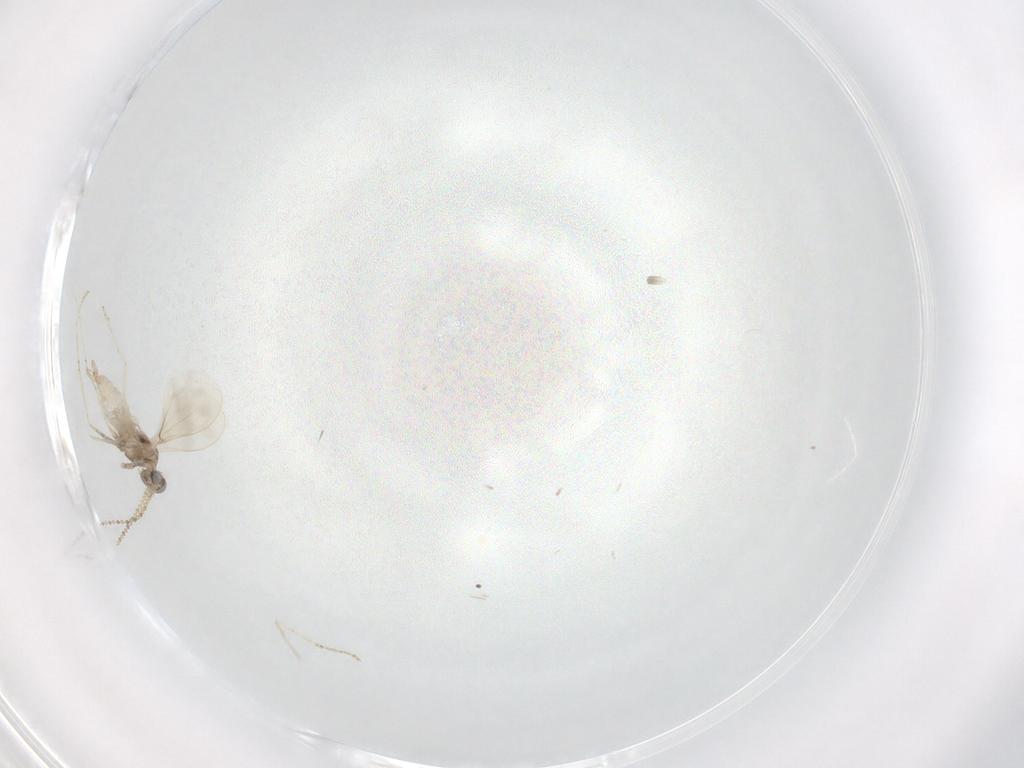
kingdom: Animalia
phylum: Arthropoda
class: Insecta
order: Diptera
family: Cecidomyiidae
